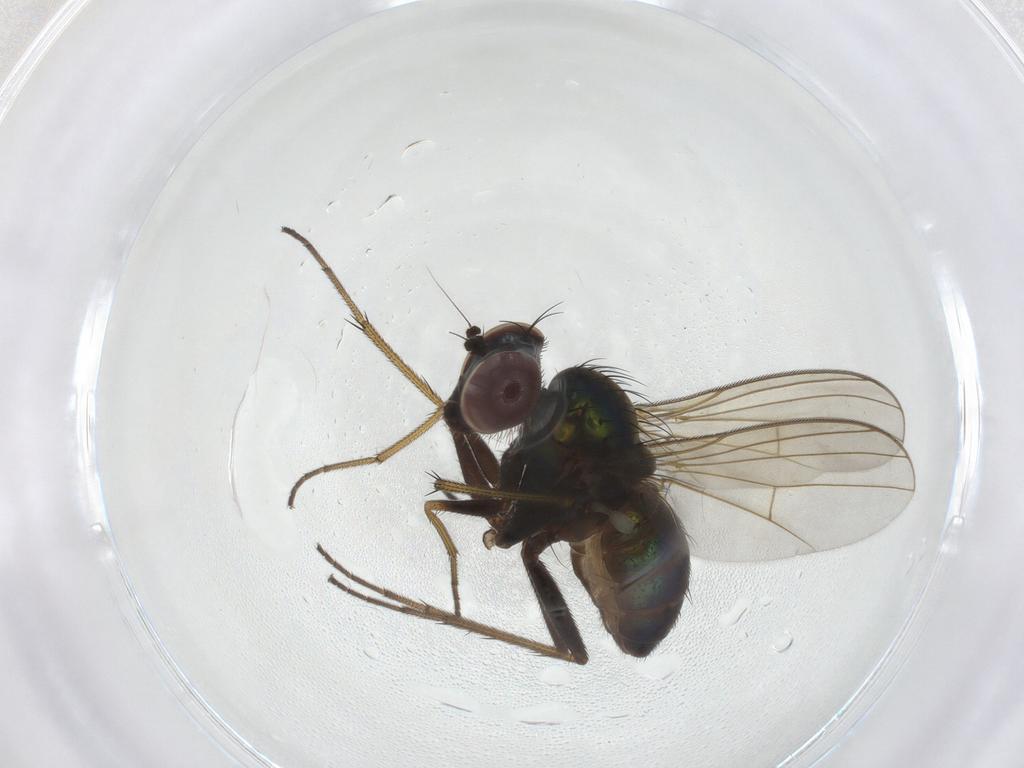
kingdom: Animalia
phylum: Arthropoda
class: Insecta
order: Diptera
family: Dolichopodidae
